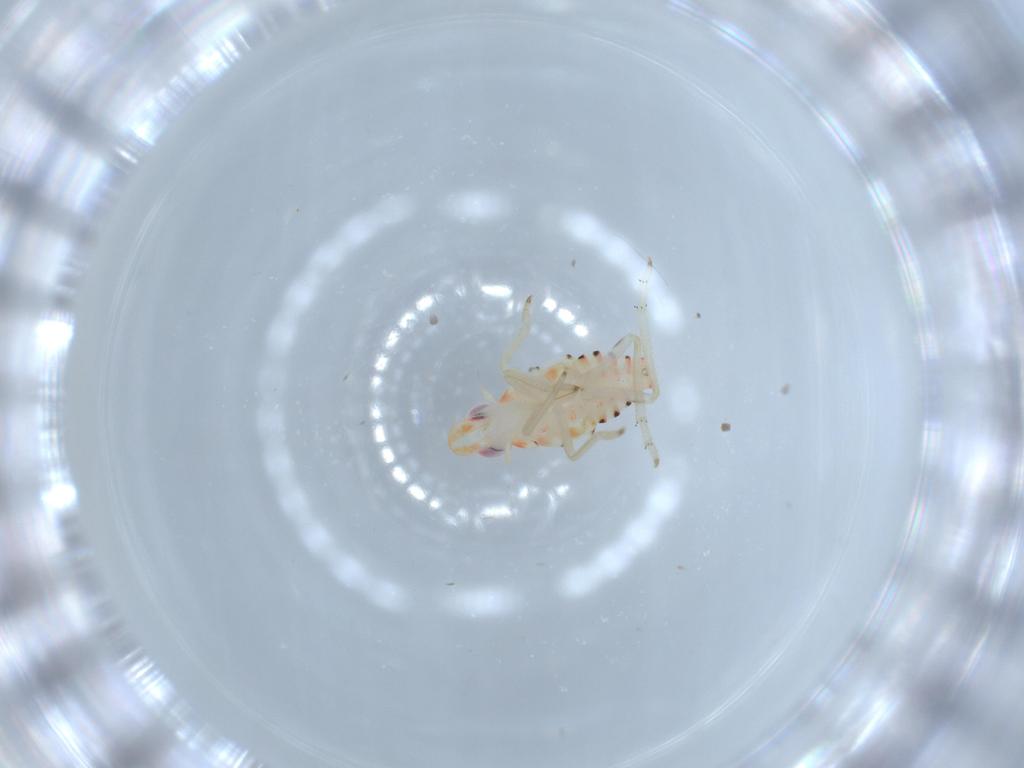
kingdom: Animalia
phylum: Arthropoda
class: Insecta
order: Hemiptera
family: Tropiduchidae
